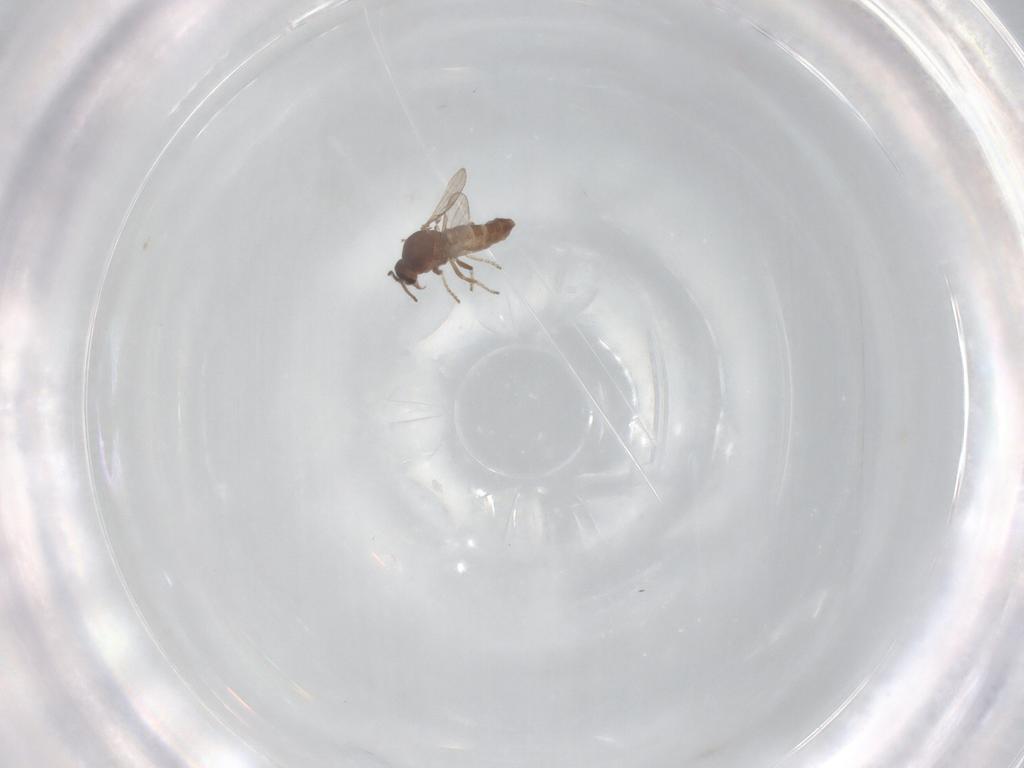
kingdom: Animalia
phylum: Arthropoda
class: Insecta
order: Diptera
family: Ceratopogonidae
